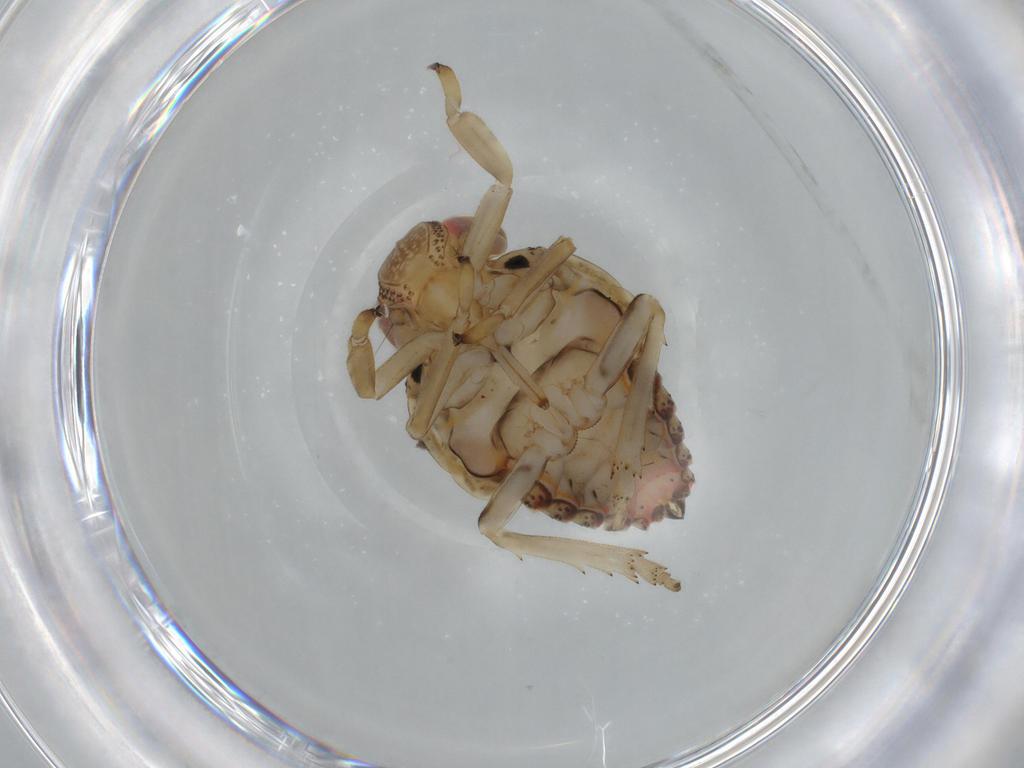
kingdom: Animalia
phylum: Arthropoda
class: Insecta
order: Hemiptera
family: Issidae
